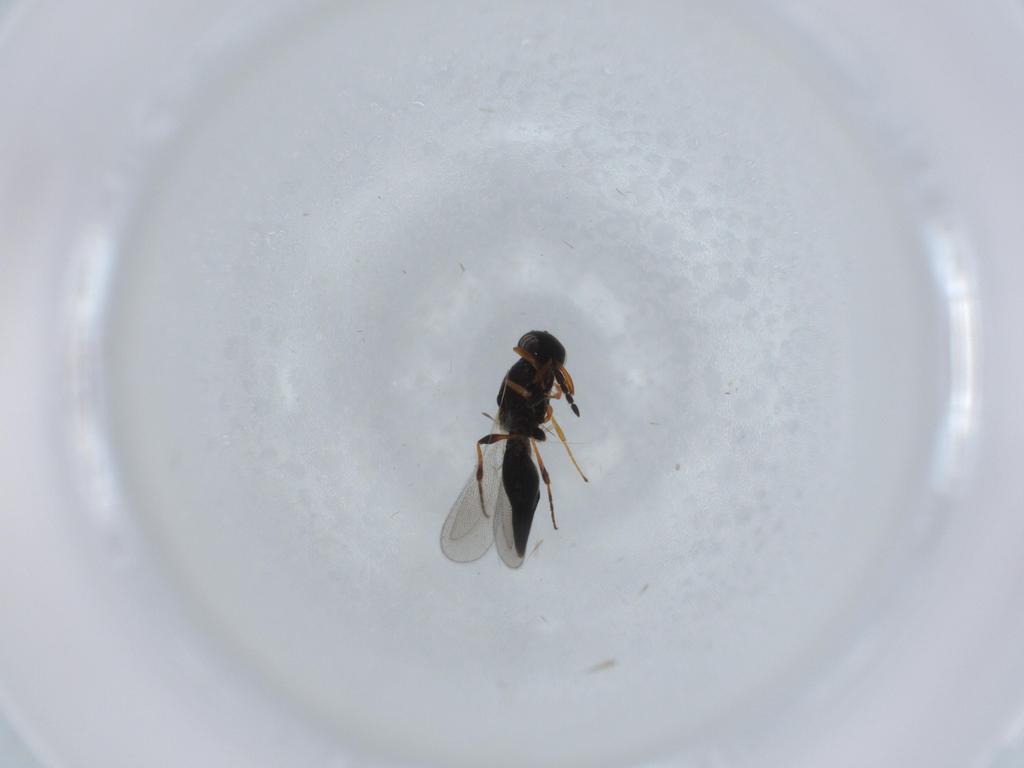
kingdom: Animalia
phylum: Arthropoda
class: Insecta
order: Hymenoptera
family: Platygastridae
